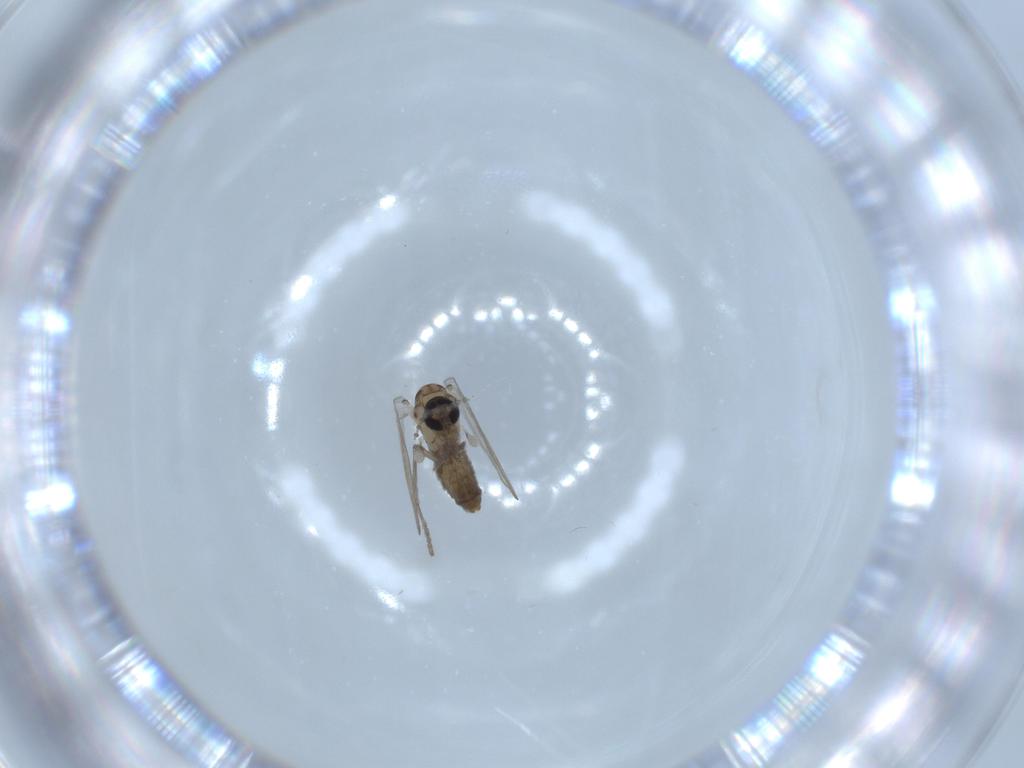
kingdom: Animalia
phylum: Arthropoda
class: Insecta
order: Diptera
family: Psychodidae
